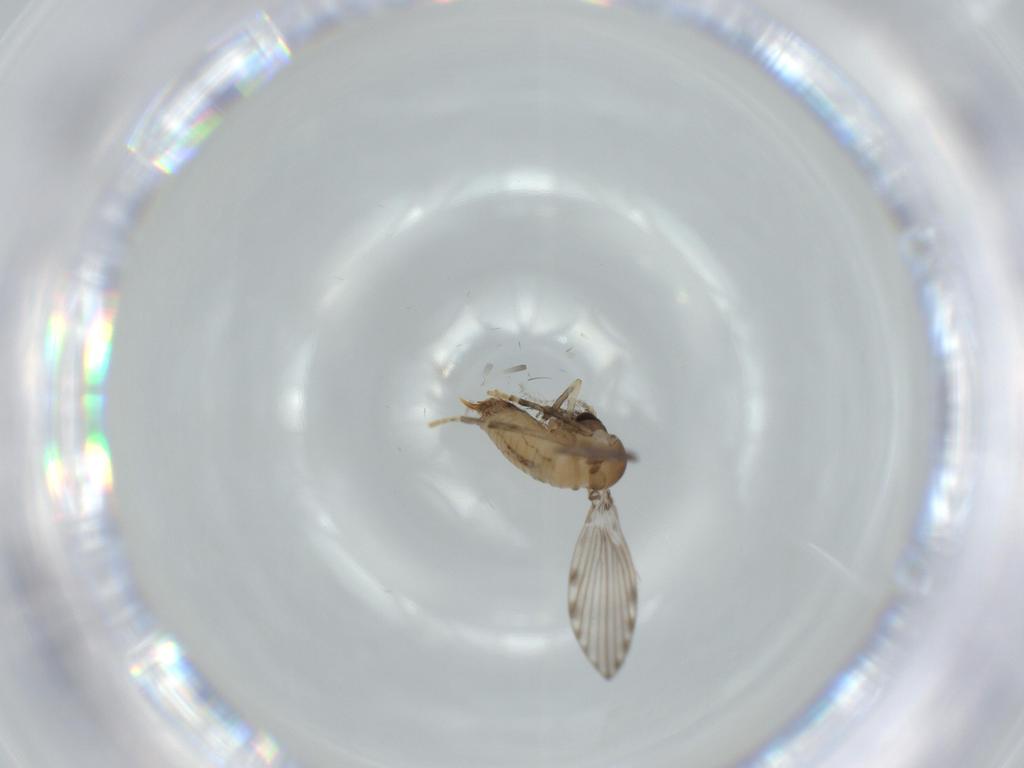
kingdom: Animalia
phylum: Arthropoda
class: Insecta
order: Diptera
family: Psychodidae
